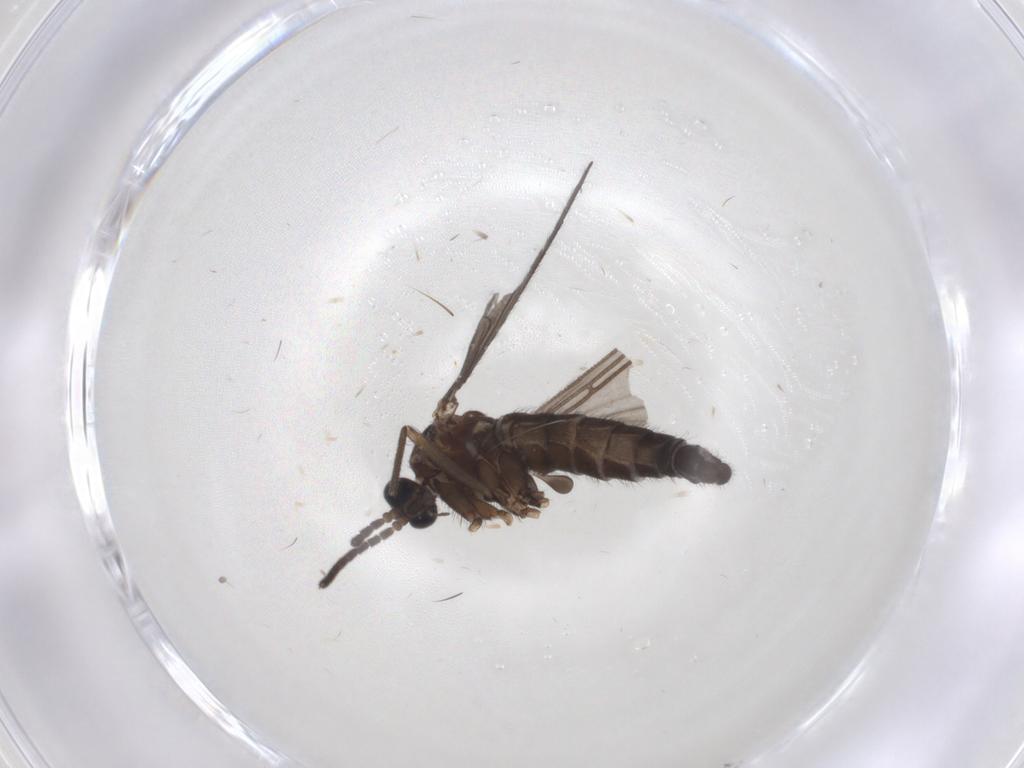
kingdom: Animalia
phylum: Arthropoda
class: Insecta
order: Diptera
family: Sciaridae
